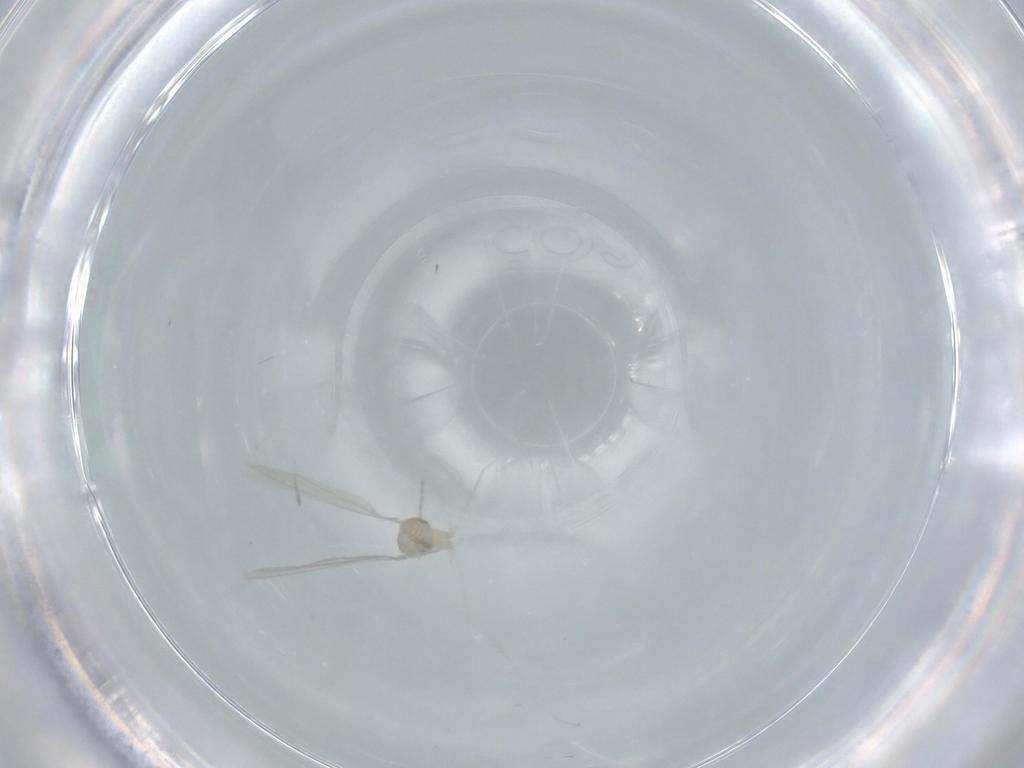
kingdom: Animalia
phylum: Arthropoda
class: Insecta
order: Diptera
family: Cecidomyiidae
